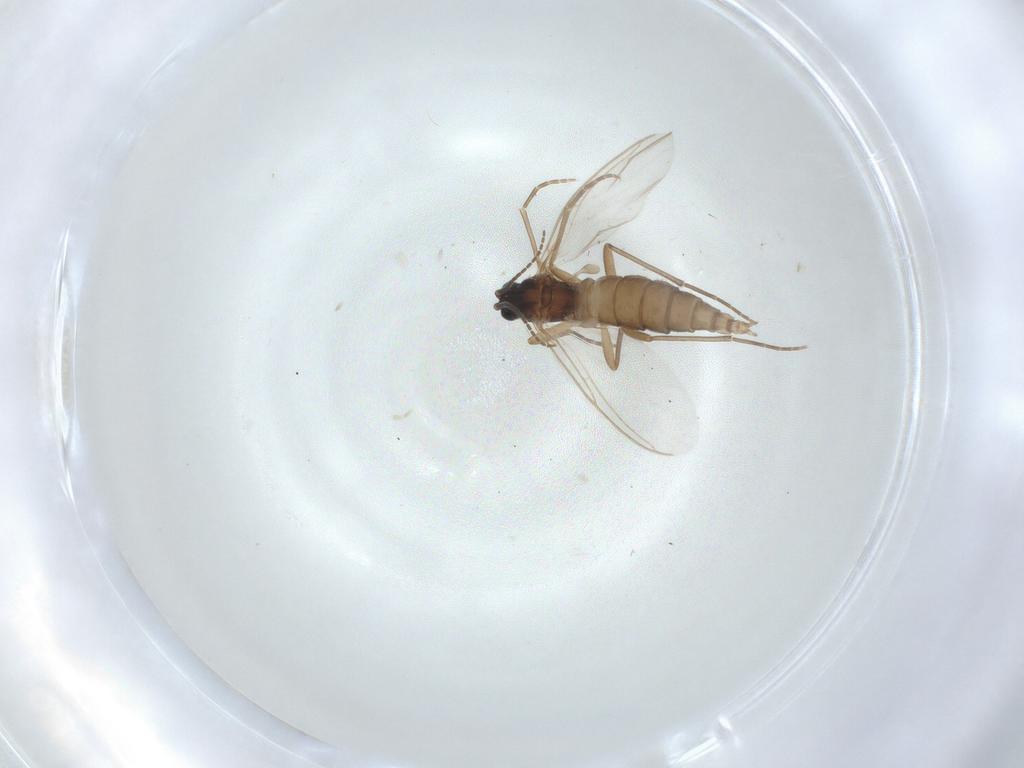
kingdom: Animalia
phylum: Arthropoda
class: Insecta
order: Diptera
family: Sciaridae
